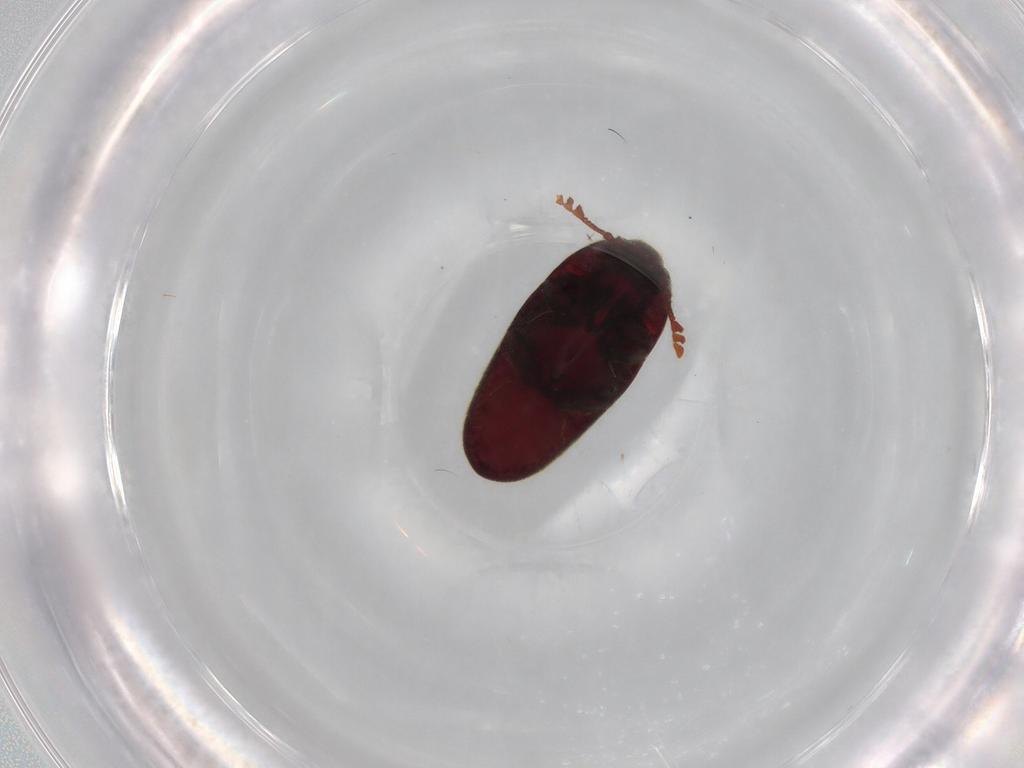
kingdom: Animalia
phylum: Arthropoda
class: Insecta
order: Coleoptera
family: Throscidae
